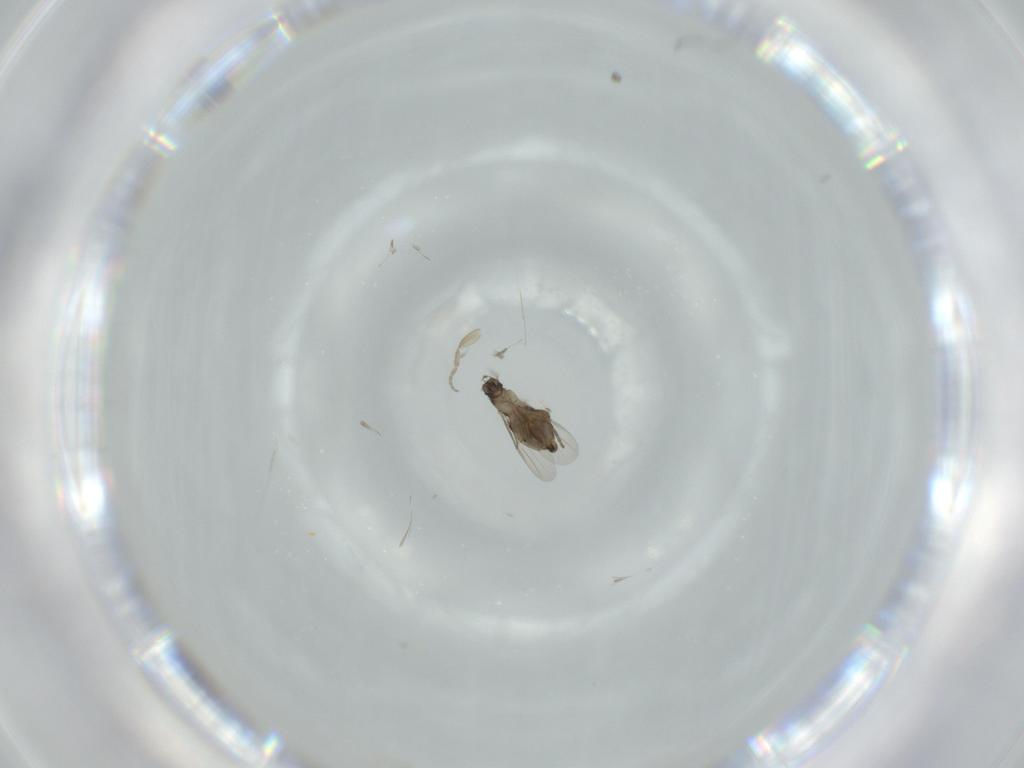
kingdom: Animalia
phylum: Arthropoda
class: Insecta
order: Diptera
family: Phoridae
